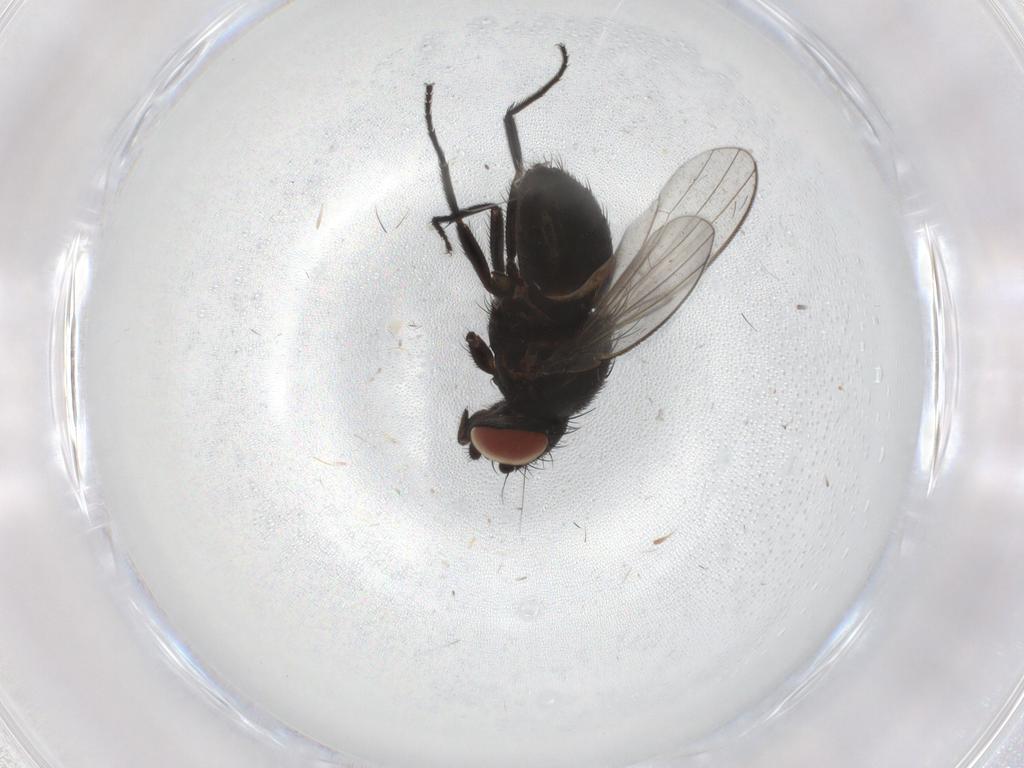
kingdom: Animalia
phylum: Arthropoda
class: Insecta
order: Diptera
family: Milichiidae
